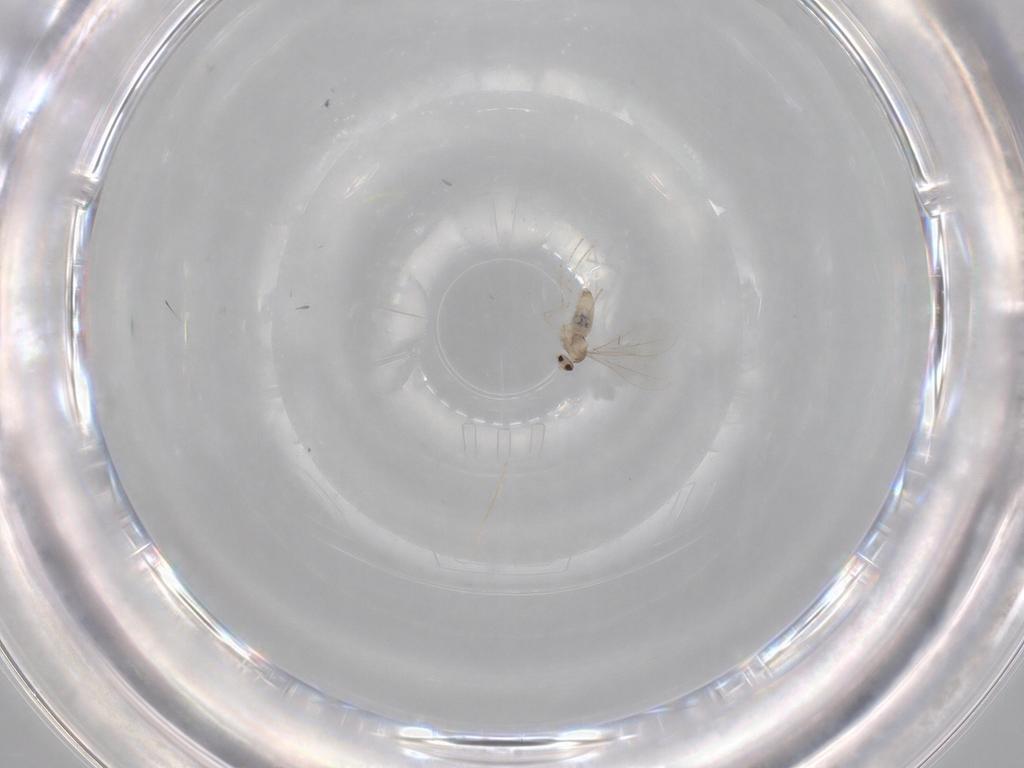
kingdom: Animalia
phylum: Arthropoda
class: Insecta
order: Diptera
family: Cecidomyiidae
